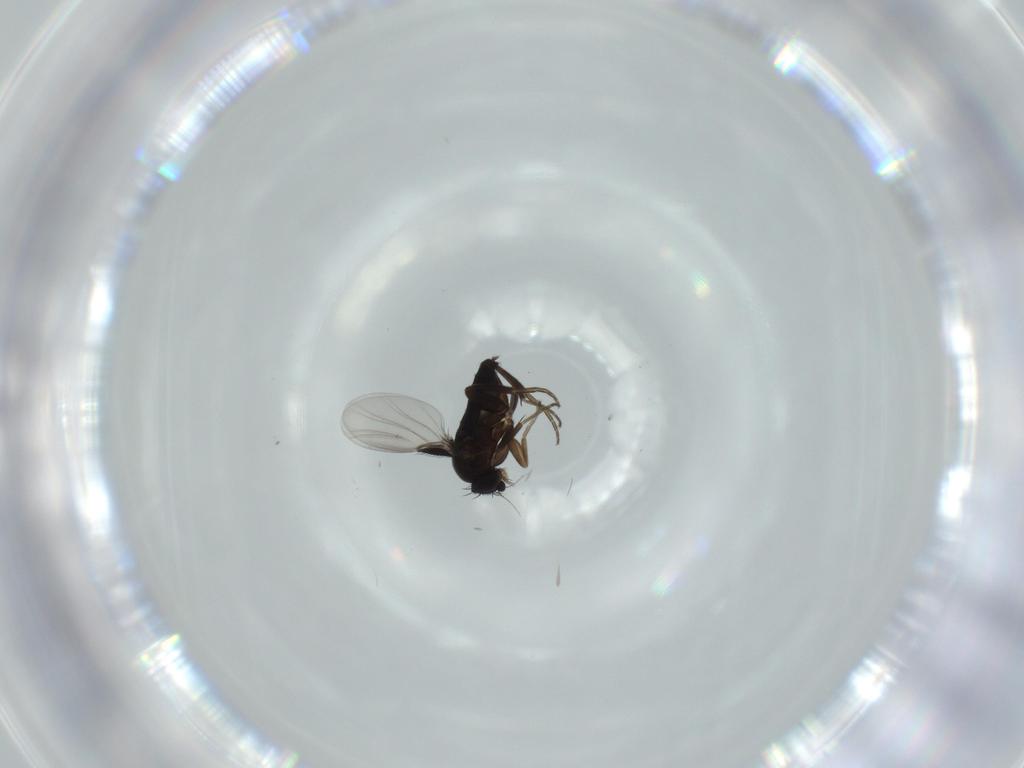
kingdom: Animalia
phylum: Arthropoda
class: Insecta
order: Diptera
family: Phoridae
